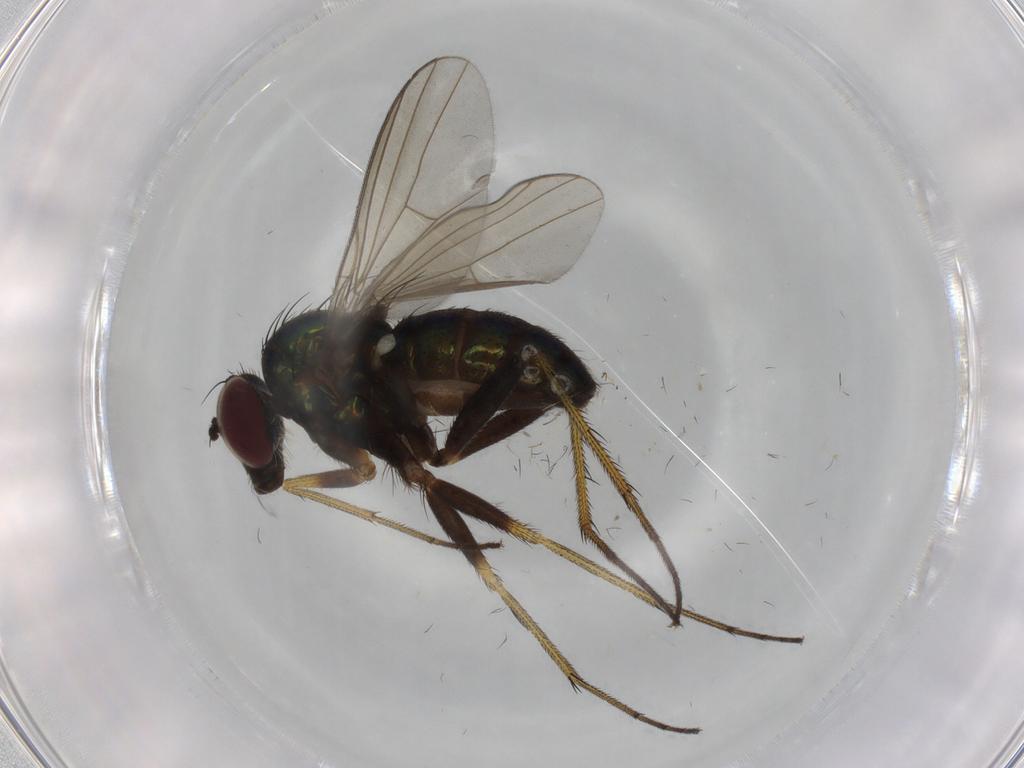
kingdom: Animalia
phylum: Arthropoda
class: Insecta
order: Diptera
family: Dolichopodidae
